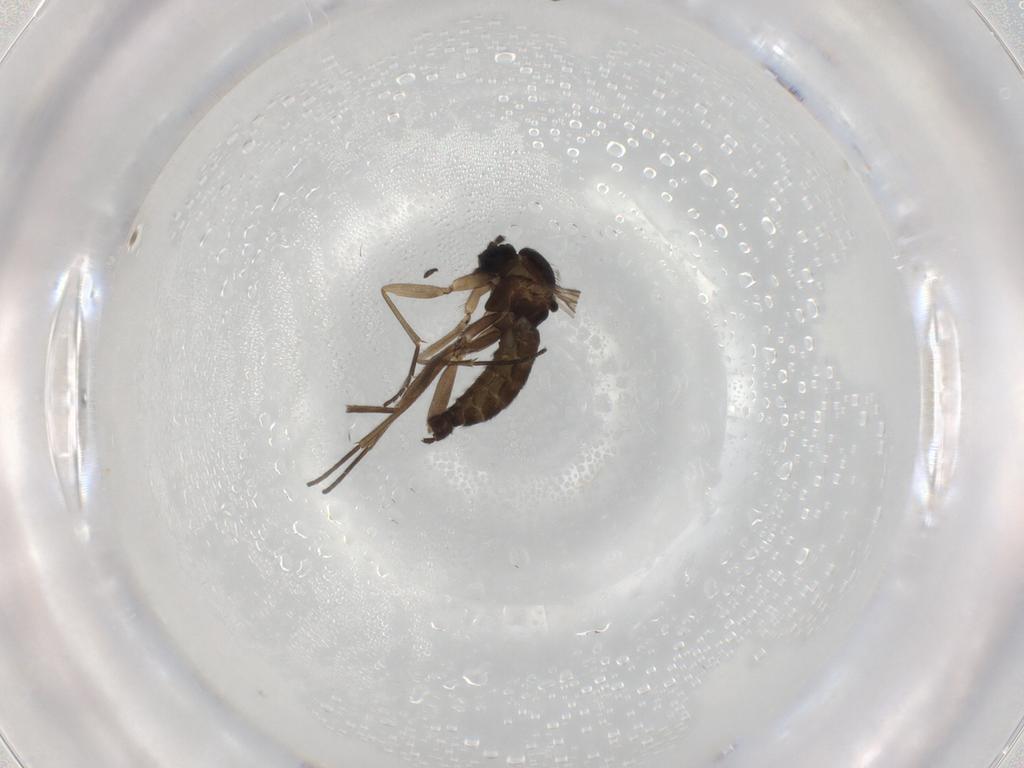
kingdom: Animalia
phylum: Arthropoda
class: Insecta
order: Diptera
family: Sciaridae
